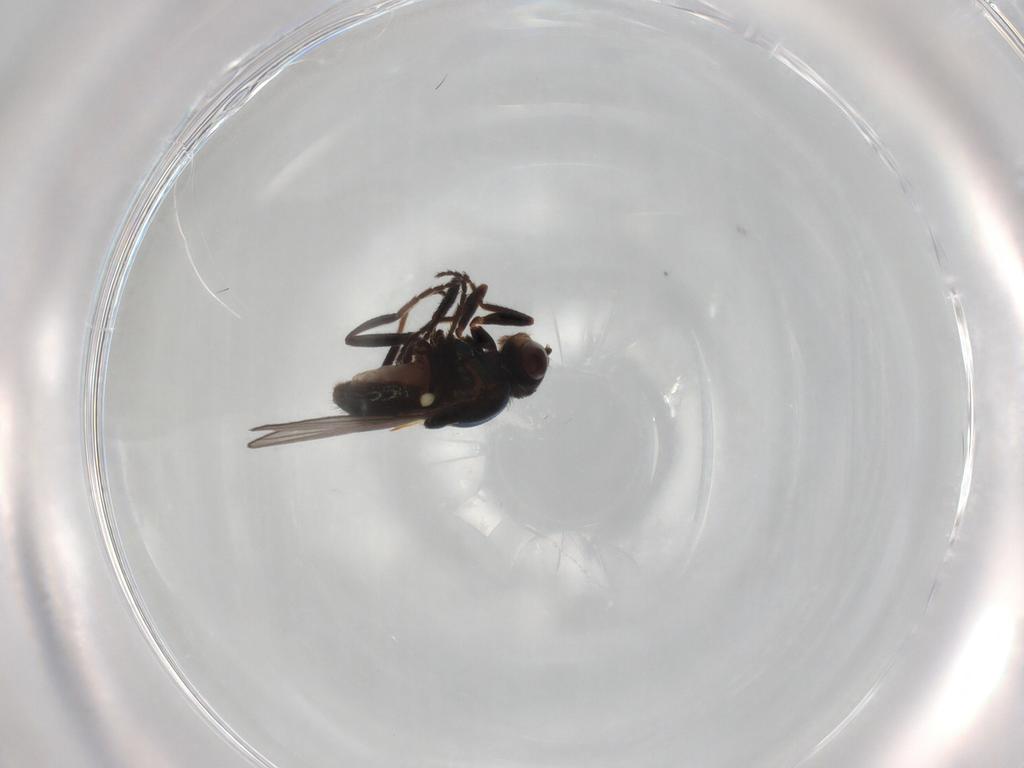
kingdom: Animalia
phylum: Arthropoda
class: Insecta
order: Diptera
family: Chloropidae
